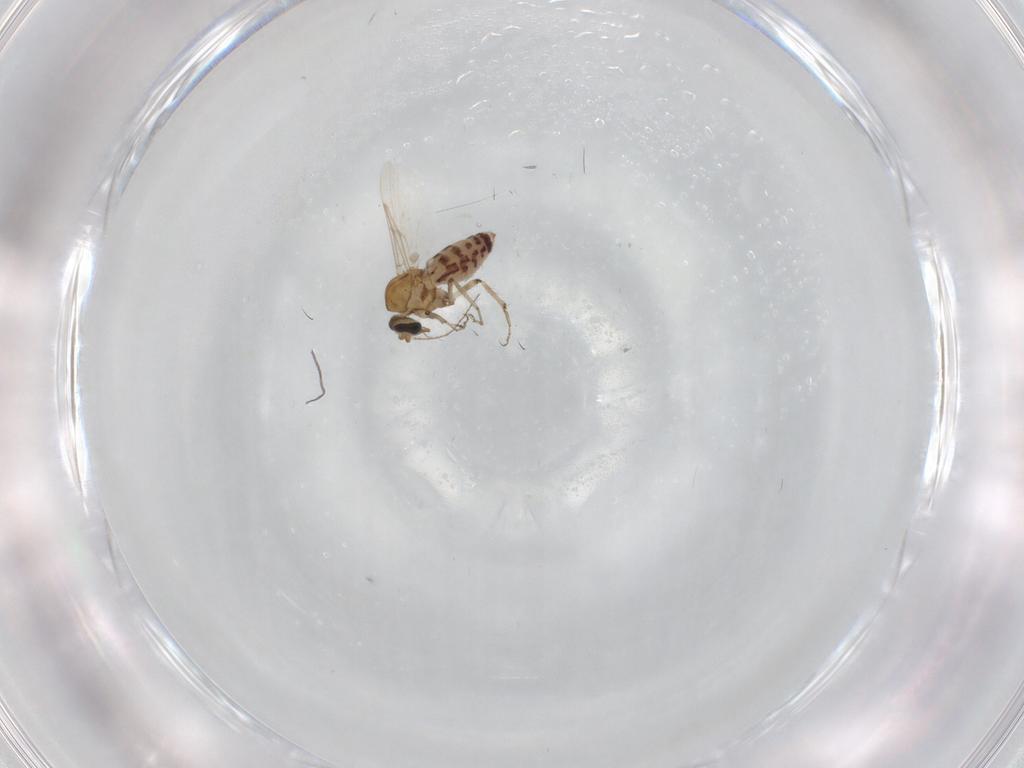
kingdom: Animalia
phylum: Arthropoda
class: Insecta
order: Diptera
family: Ceratopogonidae
